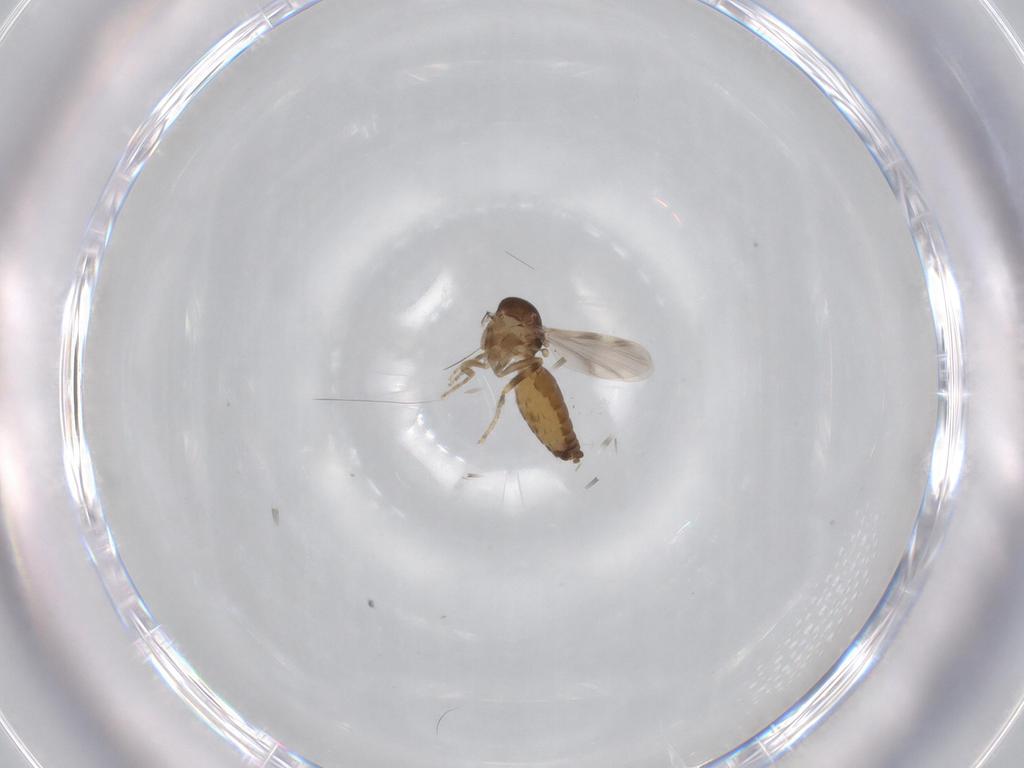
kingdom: Animalia
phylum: Arthropoda
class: Insecta
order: Diptera
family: Ceratopogonidae
